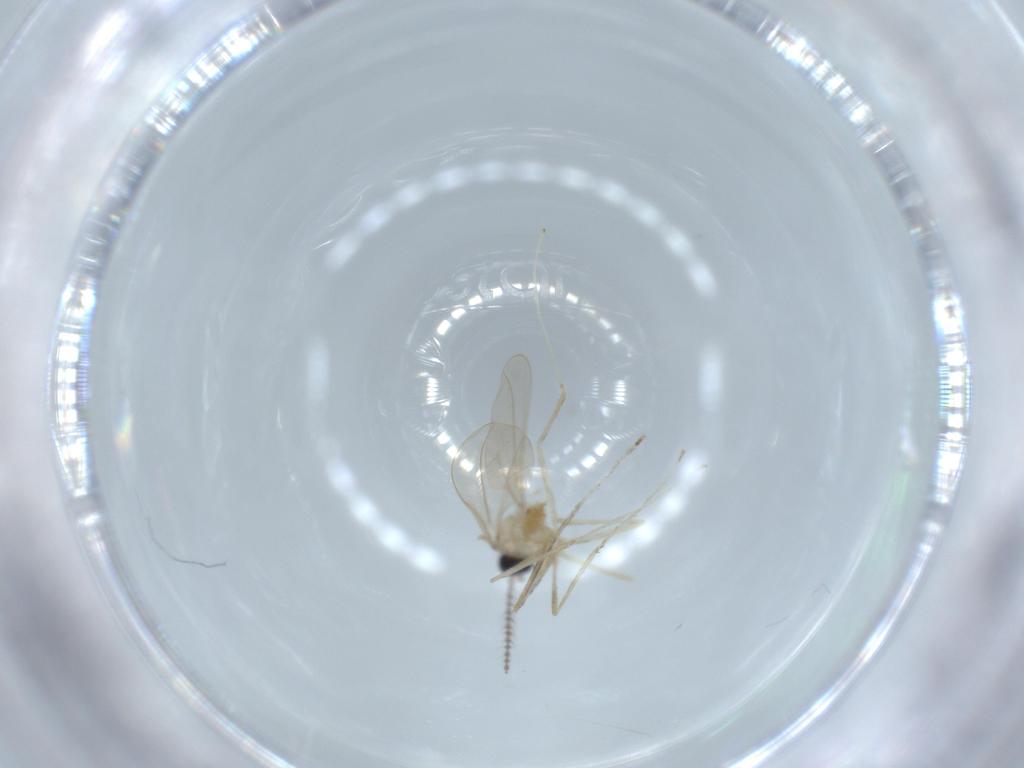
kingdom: Animalia
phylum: Arthropoda
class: Insecta
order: Diptera
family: Cecidomyiidae
